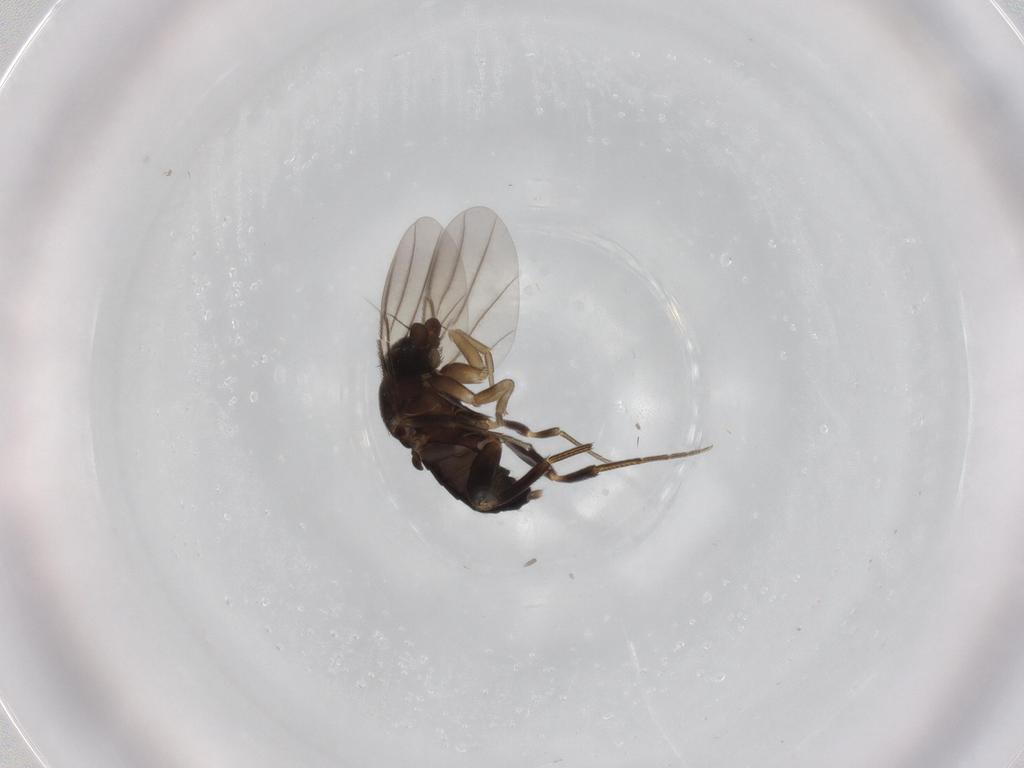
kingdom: Animalia
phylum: Arthropoda
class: Insecta
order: Diptera
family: Phoridae
